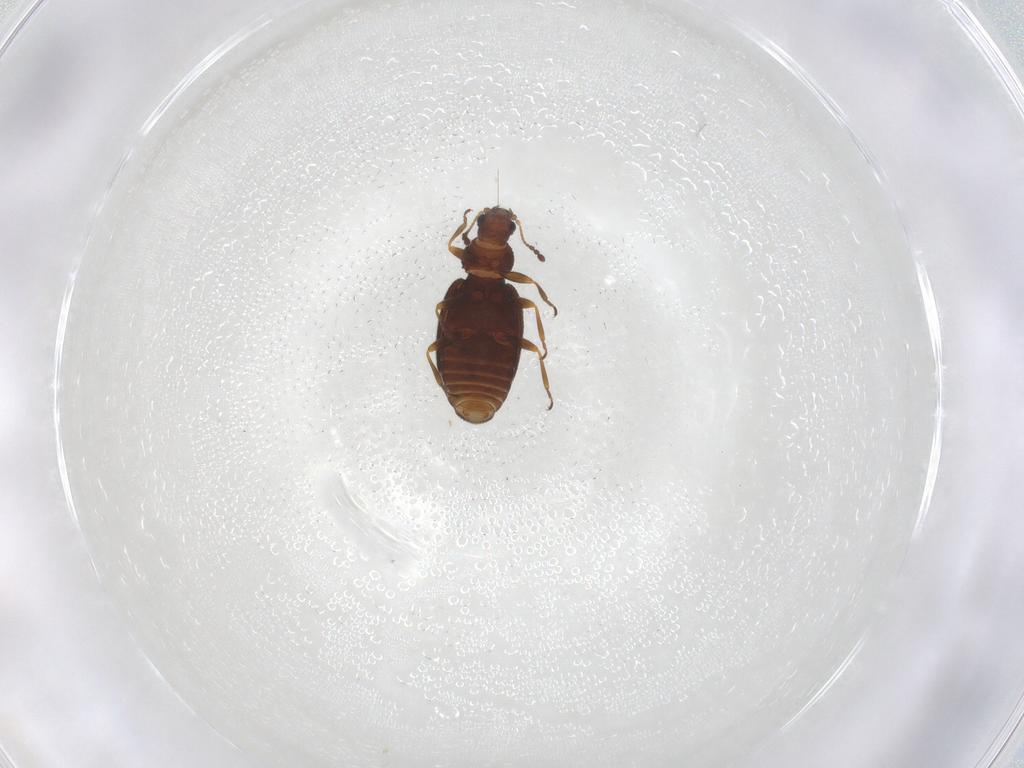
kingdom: Animalia
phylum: Arthropoda
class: Insecta
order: Coleoptera
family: Latridiidae
